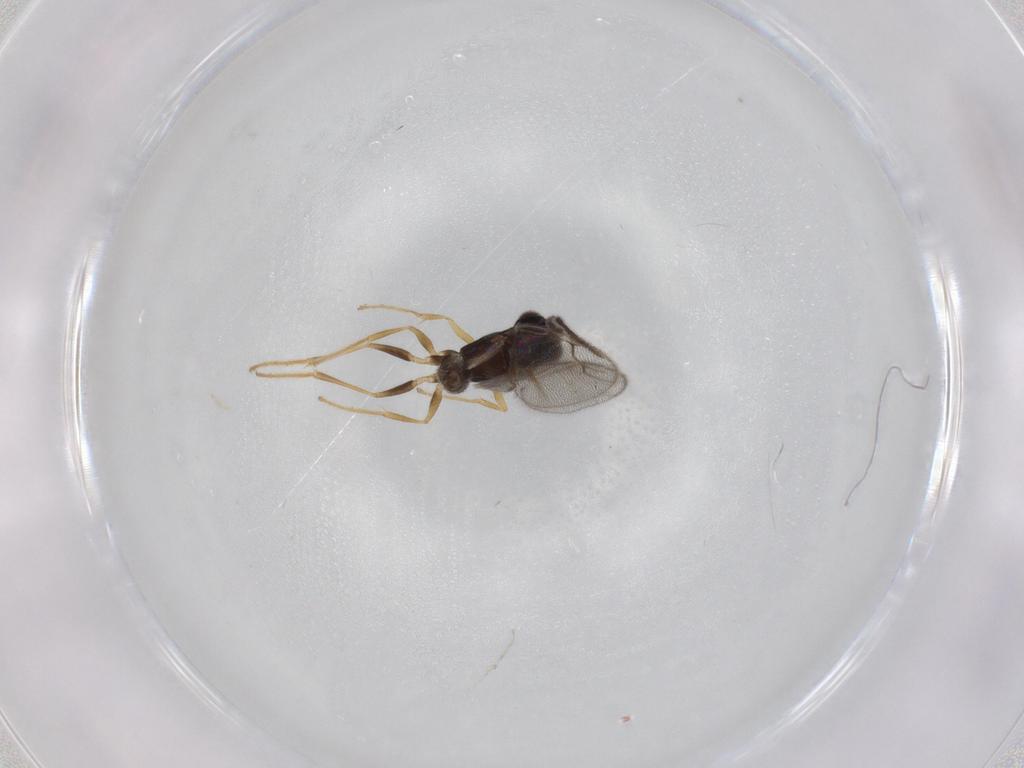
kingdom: Animalia
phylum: Arthropoda
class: Insecta
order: Hymenoptera
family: Dryinidae
